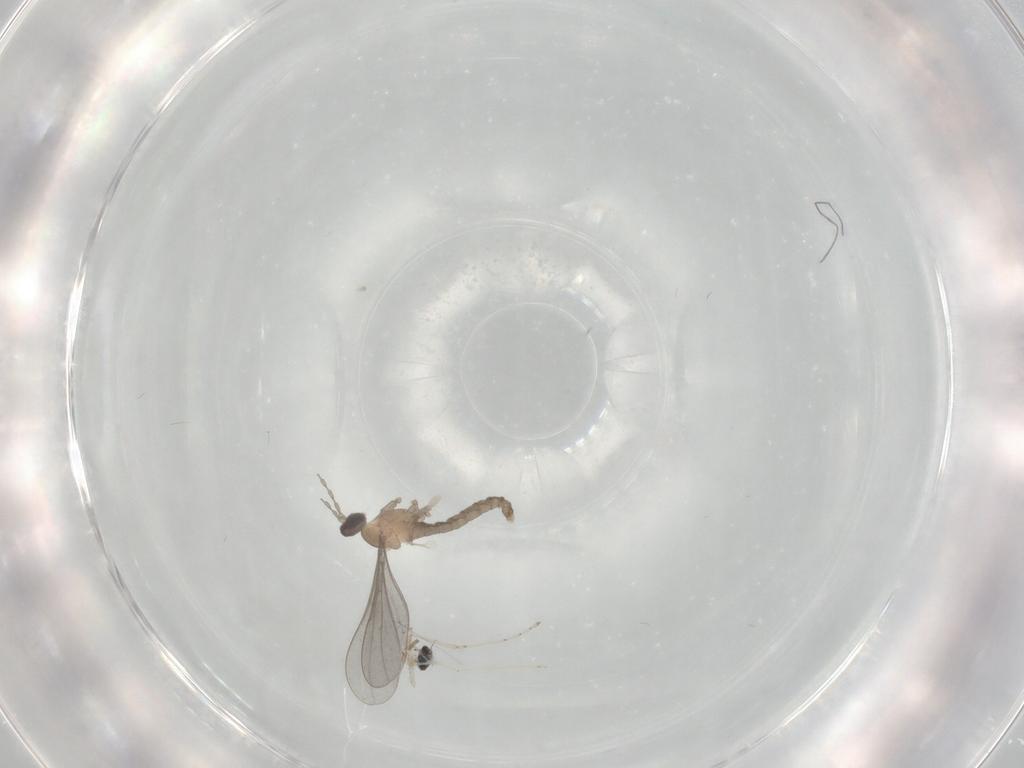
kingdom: Animalia
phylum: Arthropoda
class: Insecta
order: Diptera
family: Phoridae
